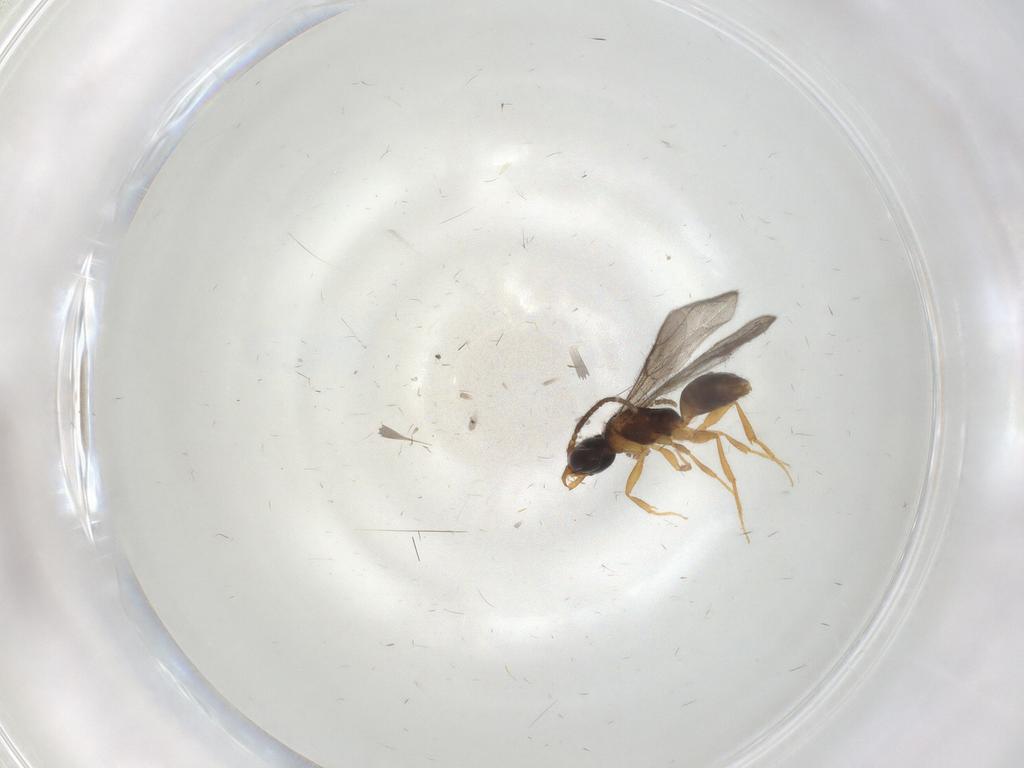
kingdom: Animalia
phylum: Arthropoda
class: Insecta
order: Hymenoptera
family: Bethylidae
